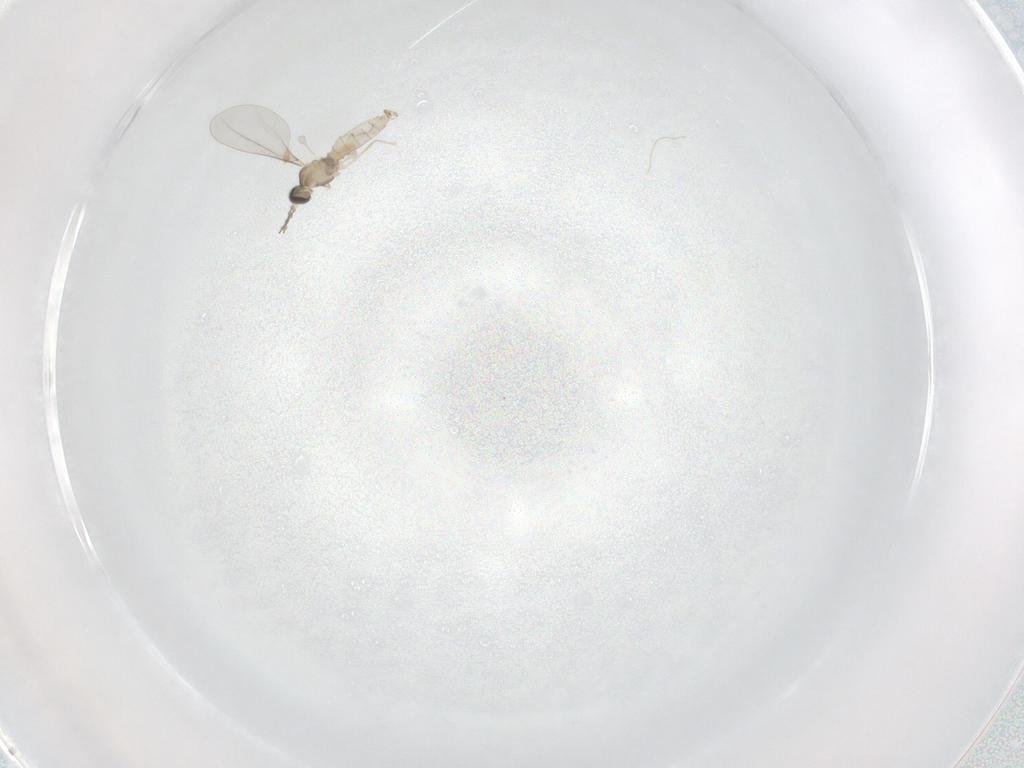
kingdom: Animalia
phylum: Arthropoda
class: Insecta
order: Diptera
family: Cecidomyiidae
